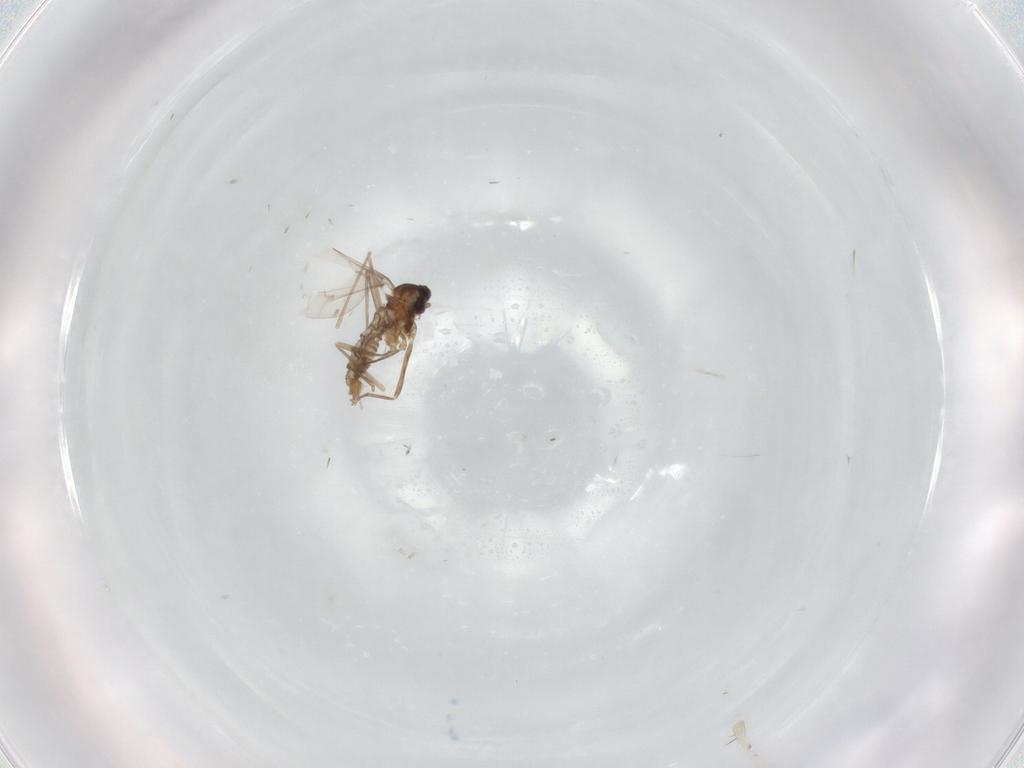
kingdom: Animalia
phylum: Arthropoda
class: Insecta
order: Diptera
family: Cecidomyiidae
